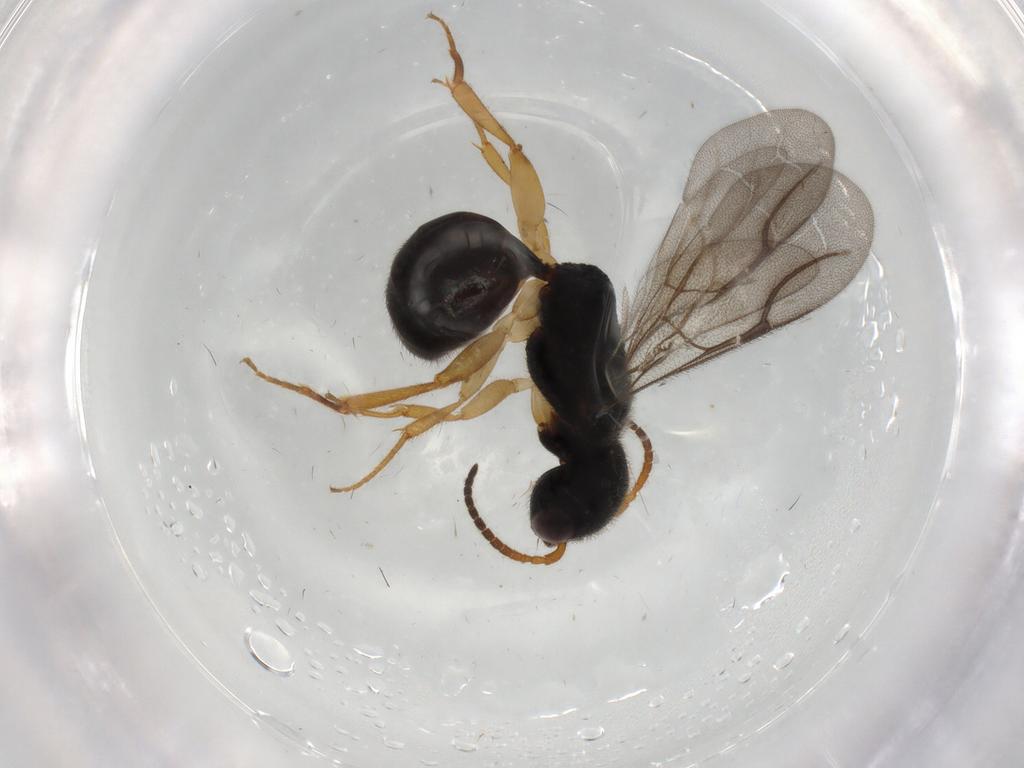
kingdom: Animalia
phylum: Arthropoda
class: Insecta
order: Hymenoptera
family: Bethylidae
